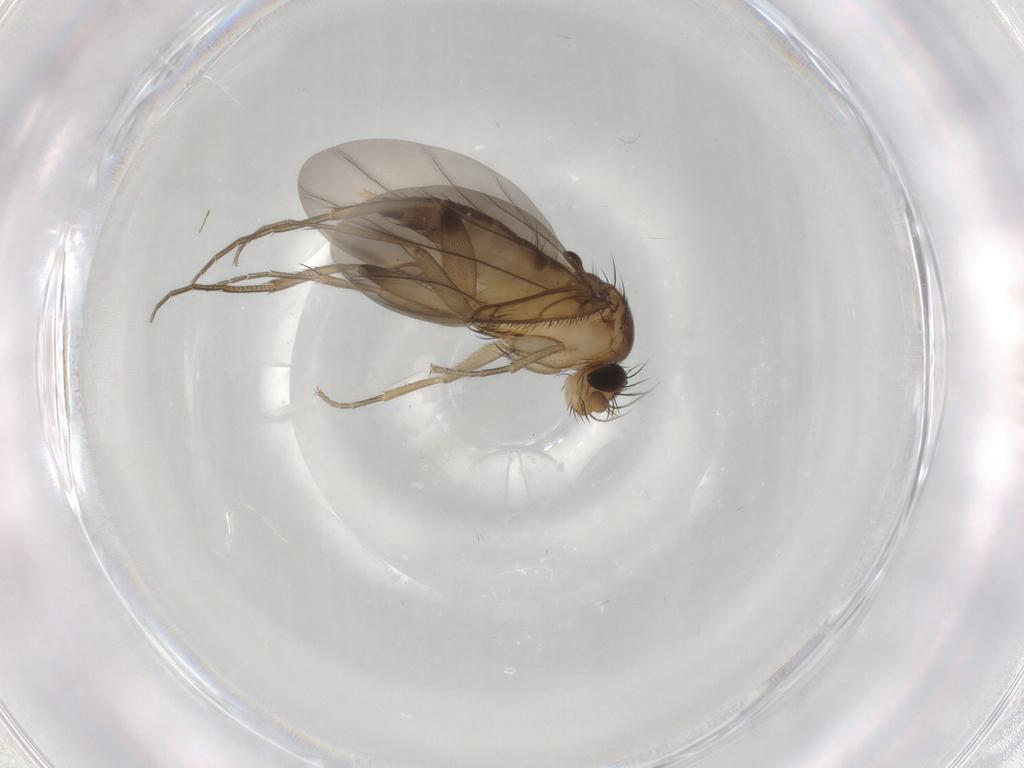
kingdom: Animalia
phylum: Arthropoda
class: Insecta
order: Diptera
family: Phoridae
